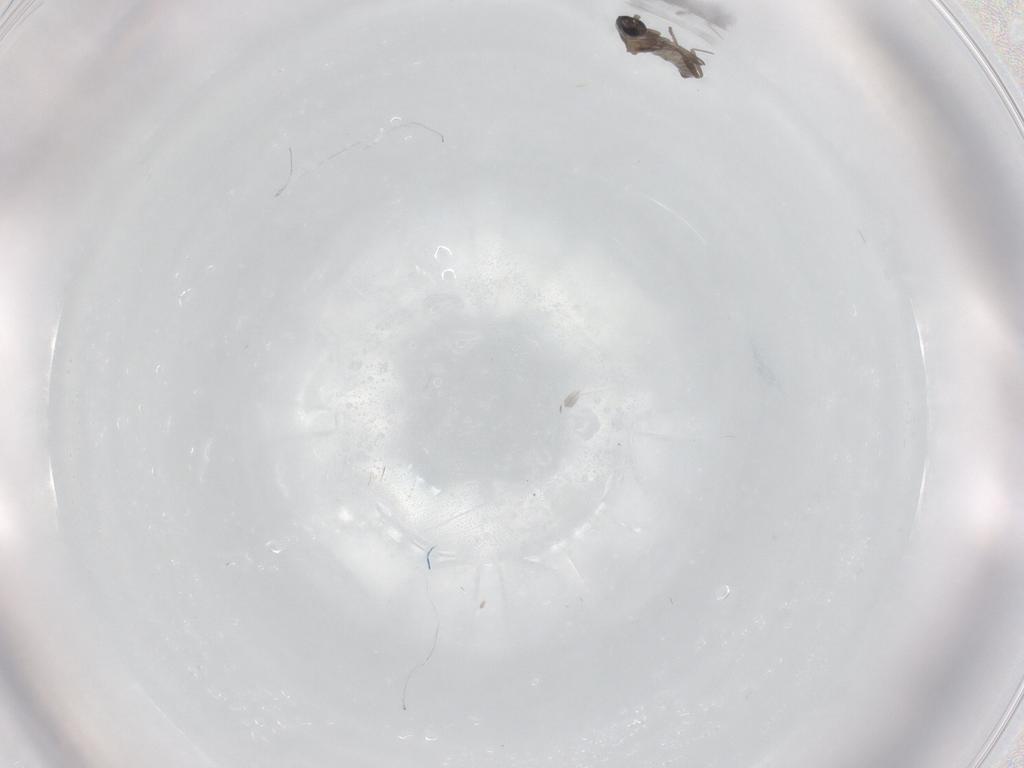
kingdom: Animalia
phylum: Arthropoda
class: Insecta
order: Diptera
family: Cecidomyiidae
